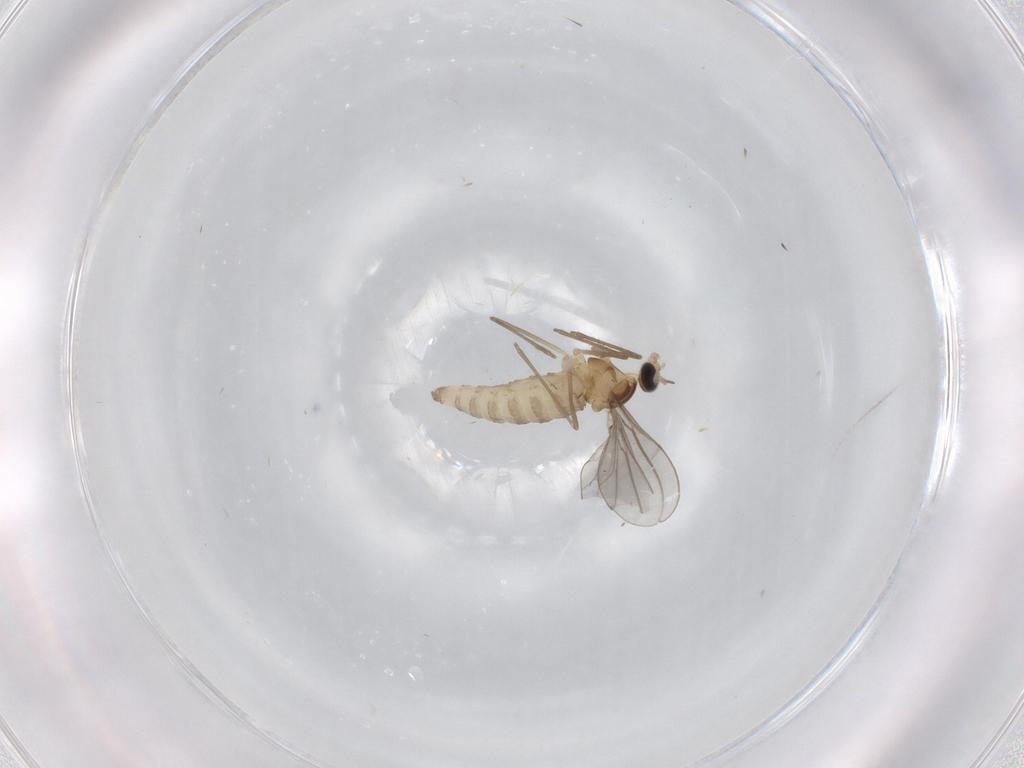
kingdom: Animalia
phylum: Arthropoda
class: Insecta
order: Diptera
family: Cecidomyiidae
